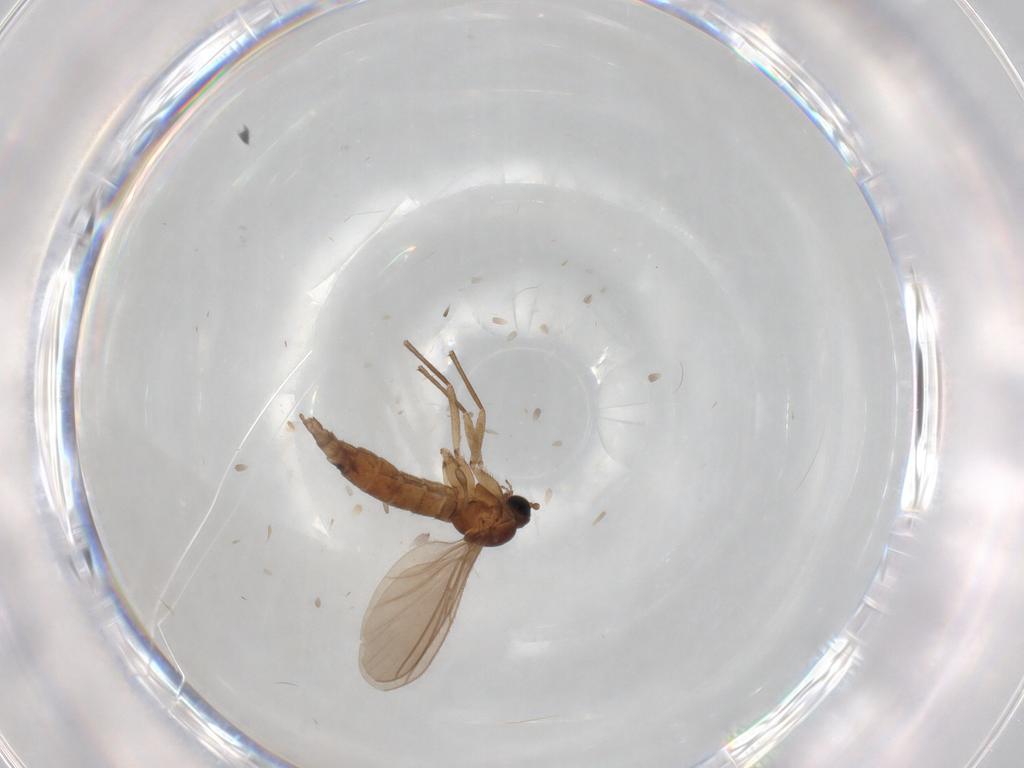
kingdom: Animalia
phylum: Arthropoda
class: Insecta
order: Diptera
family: Sciaridae
